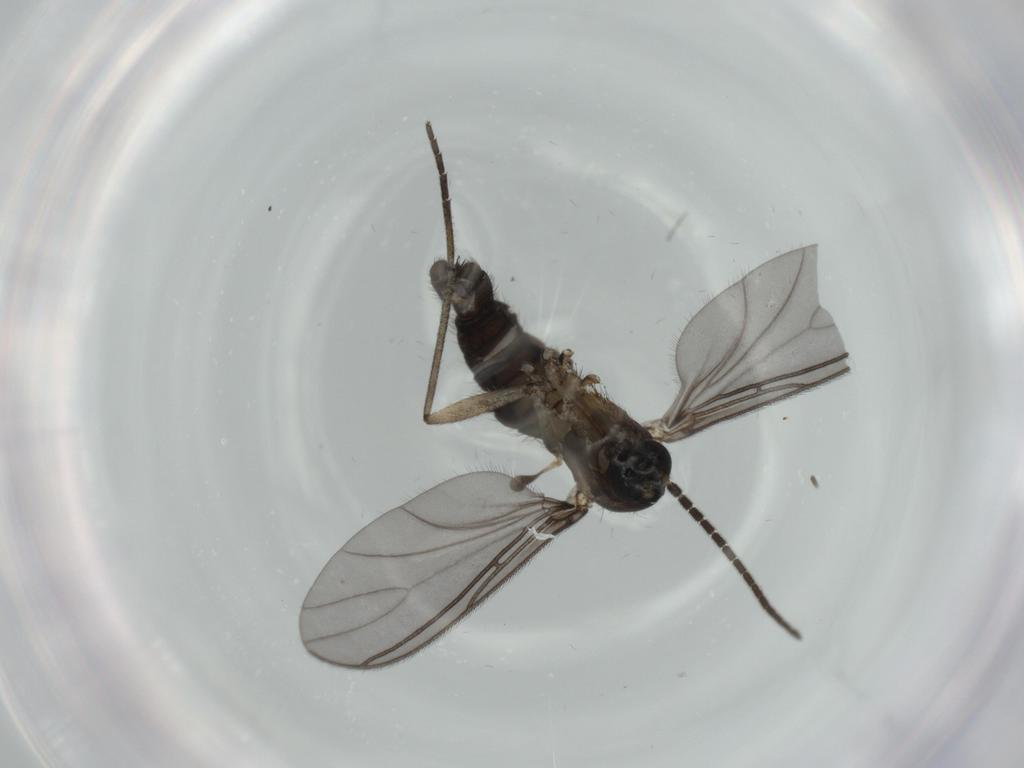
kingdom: Animalia
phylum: Arthropoda
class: Insecta
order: Diptera
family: Sciaridae
